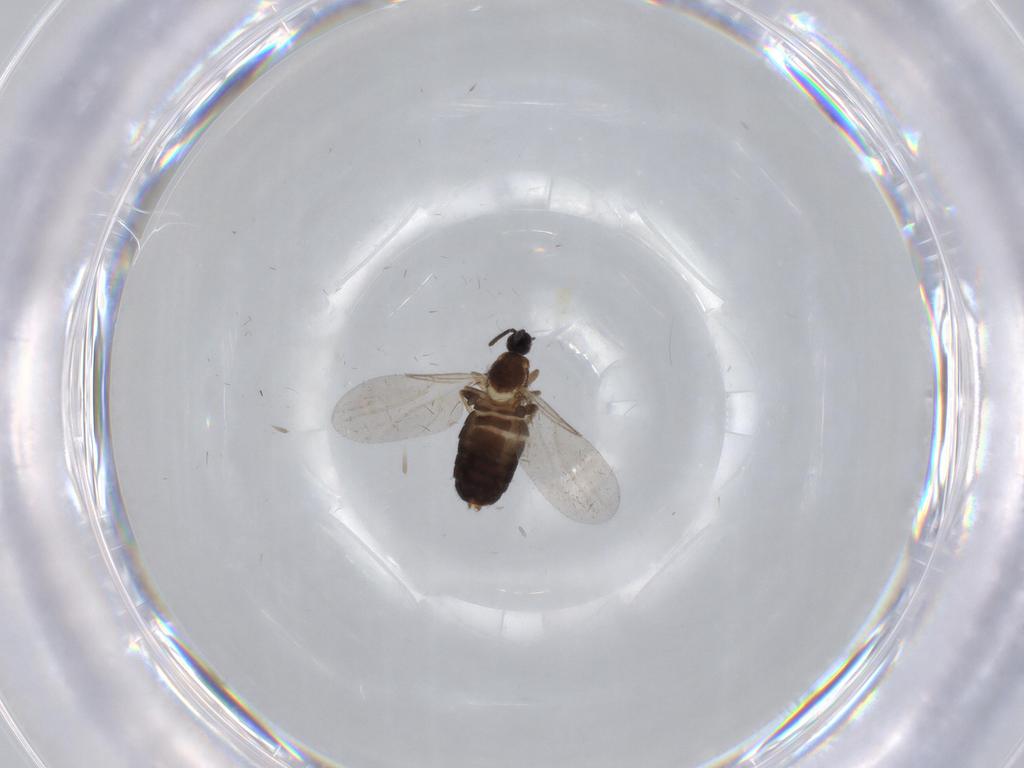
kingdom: Animalia
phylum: Arthropoda
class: Insecta
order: Diptera
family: Scatopsidae
